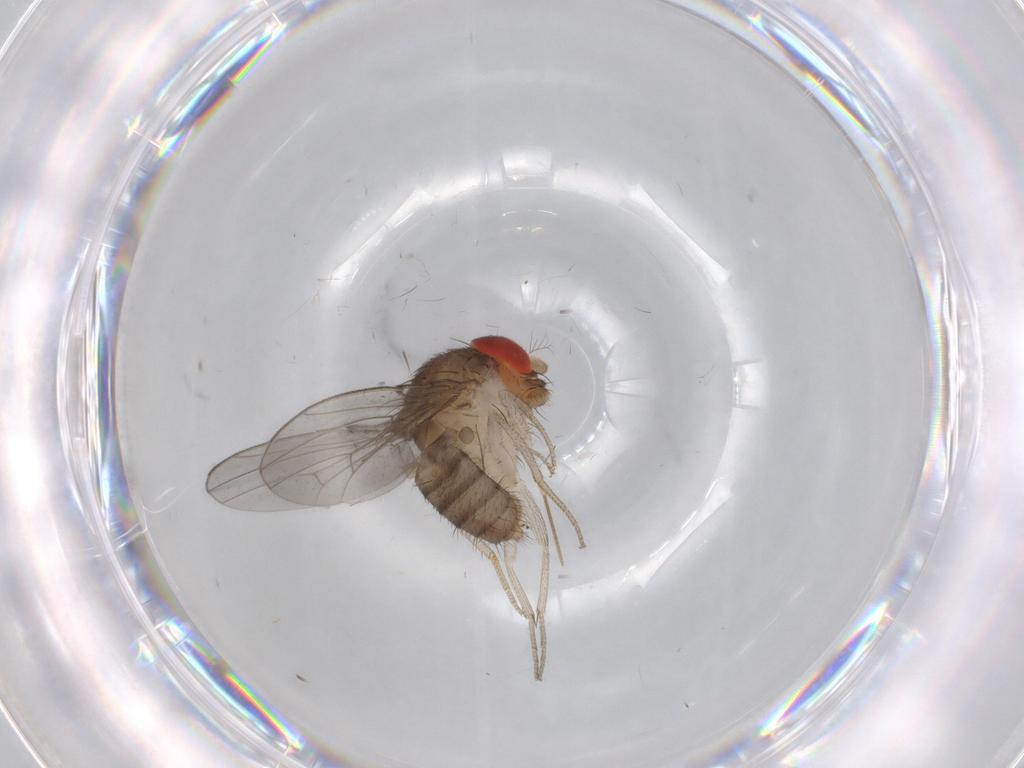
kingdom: Animalia
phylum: Arthropoda
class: Insecta
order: Diptera
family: Drosophilidae
